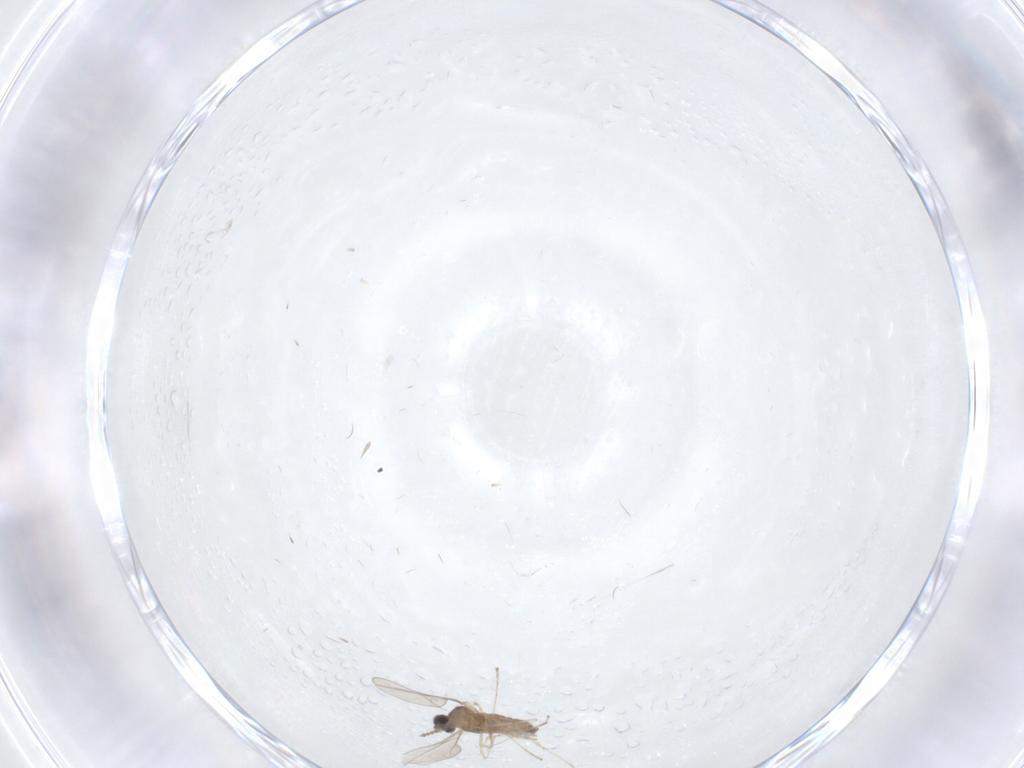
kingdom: Animalia
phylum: Arthropoda
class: Insecta
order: Diptera
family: Cecidomyiidae
